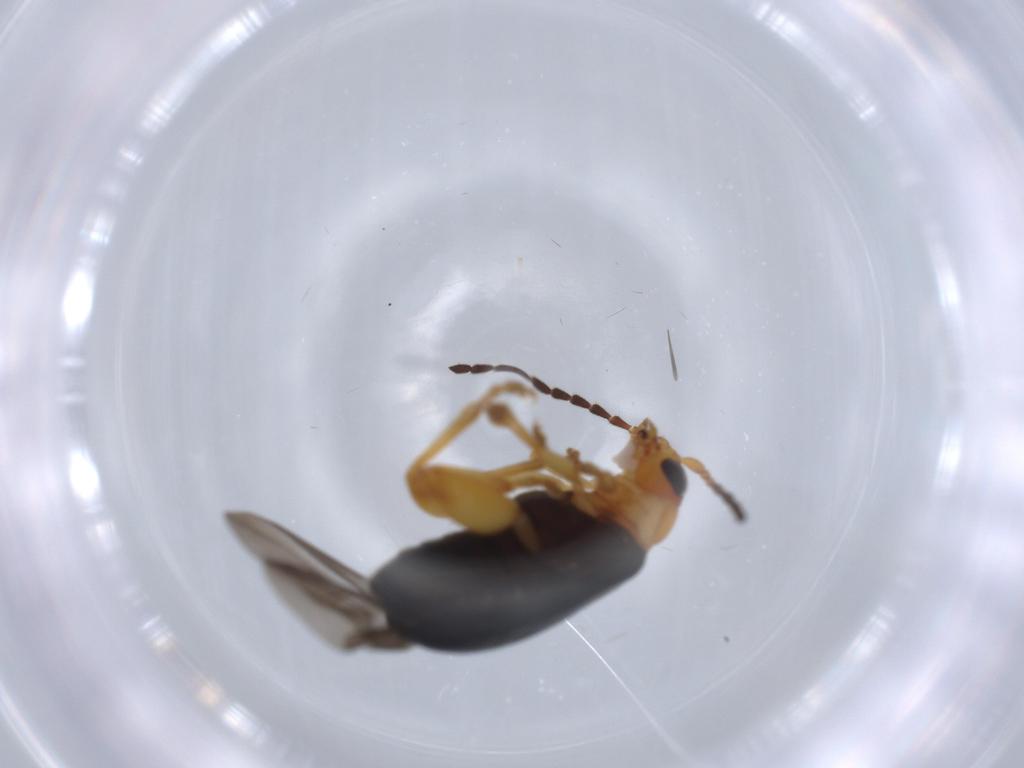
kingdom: Animalia
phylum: Arthropoda
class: Insecta
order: Coleoptera
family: Chrysomelidae
